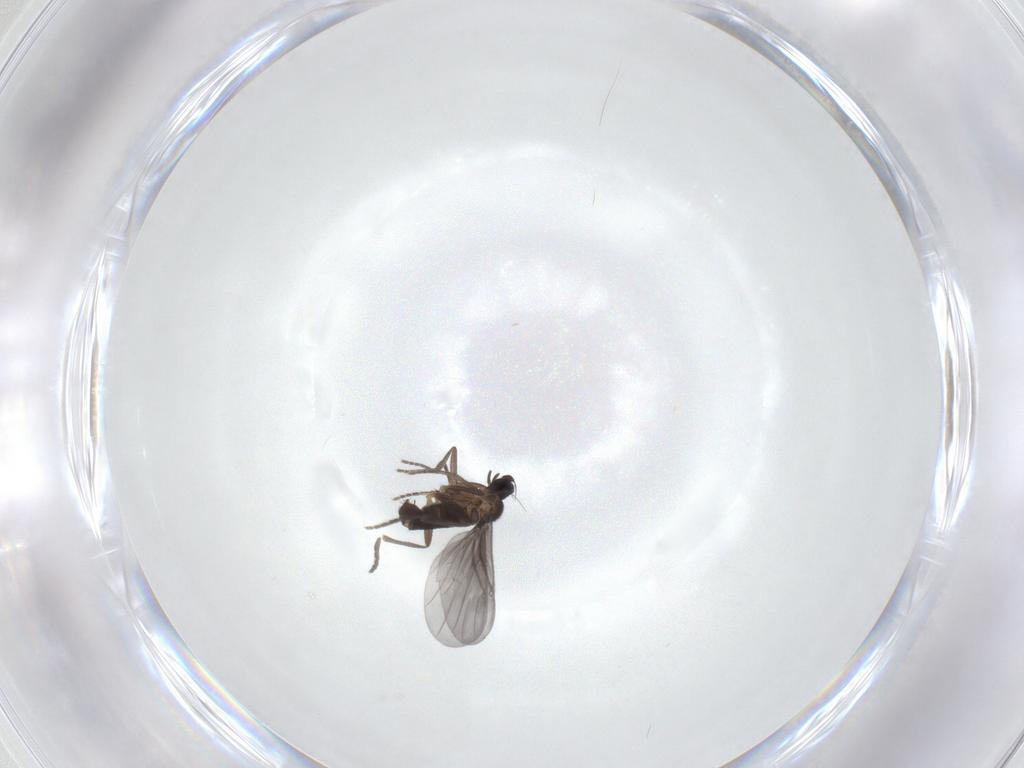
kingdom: Animalia
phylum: Arthropoda
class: Insecta
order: Diptera
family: Phoridae
